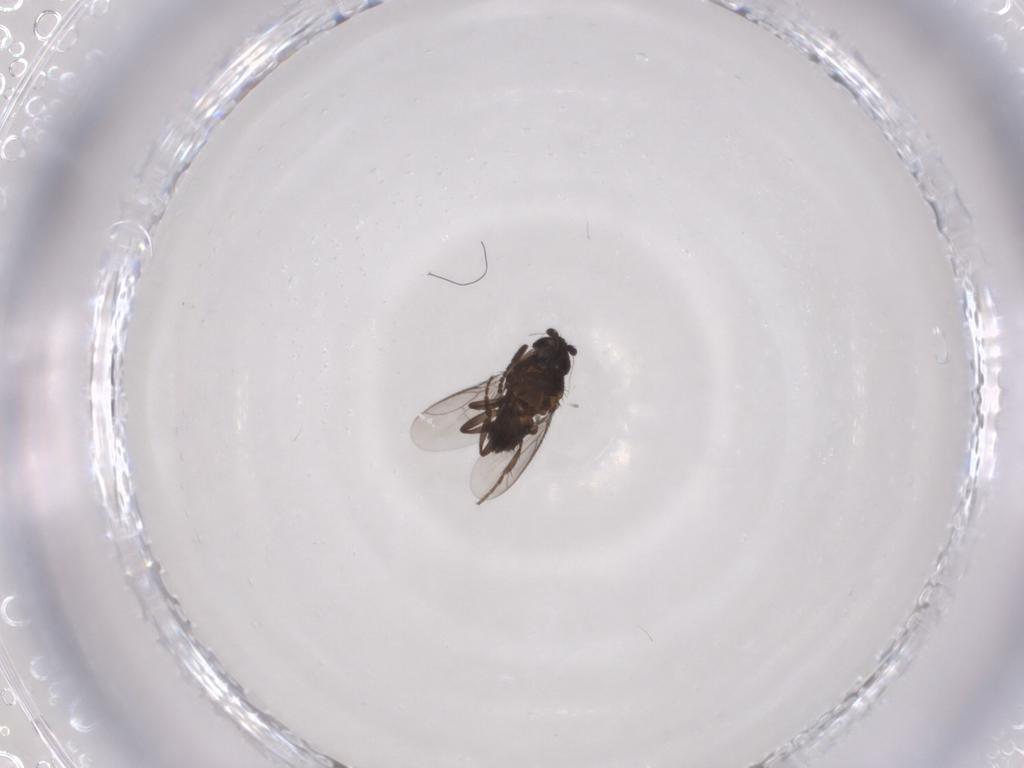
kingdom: Animalia
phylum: Arthropoda
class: Insecta
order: Diptera
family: Sphaeroceridae
